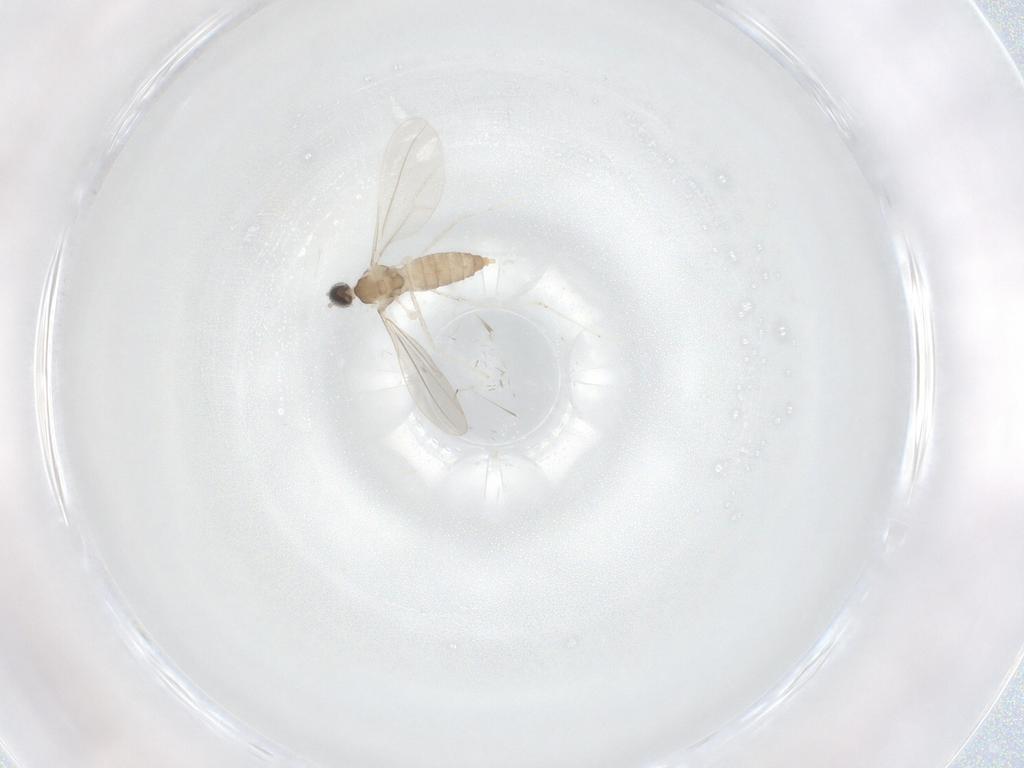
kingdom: Animalia
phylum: Arthropoda
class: Insecta
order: Diptera
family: Cecidomyiidae
